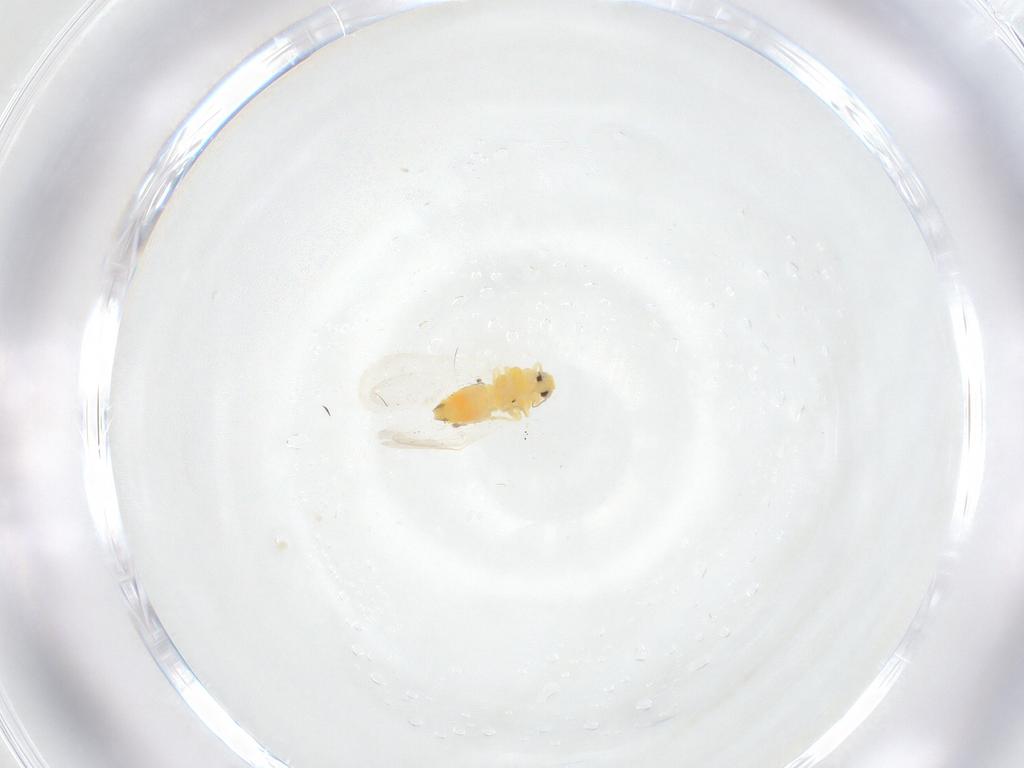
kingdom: Animalia
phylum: Arthropoda
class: Insecta
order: Hemiptera
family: Aleyrodidae
